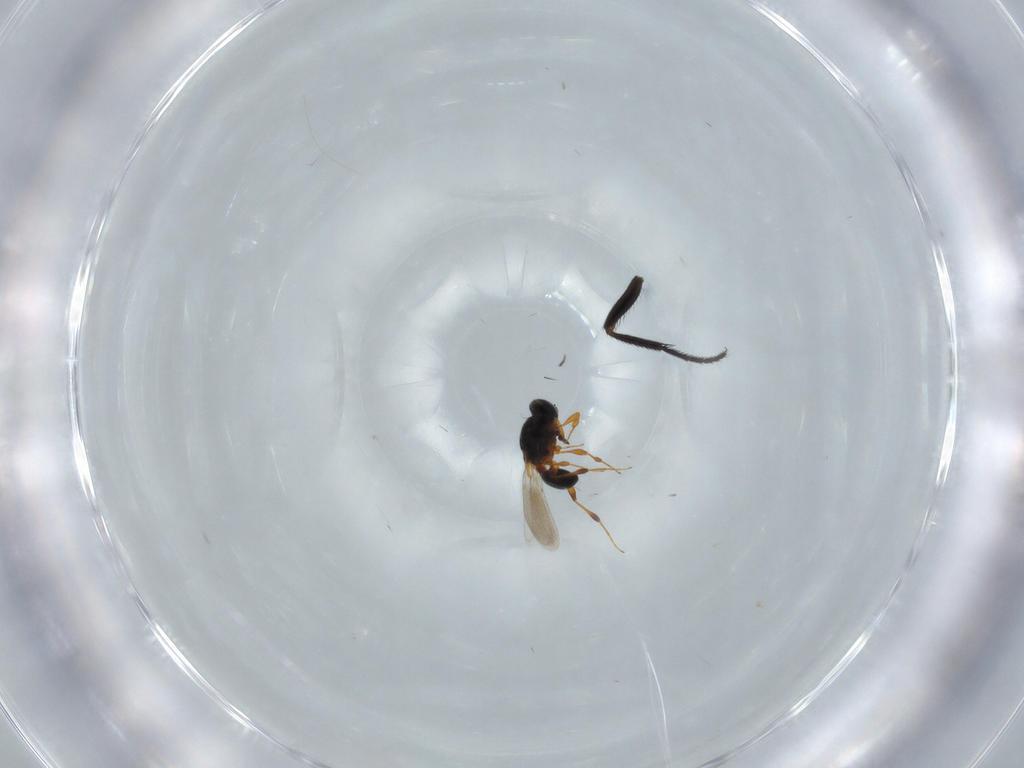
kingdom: Animalia
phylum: Arthropoda
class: Insecta
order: Hymenoptera
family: Platygastridae
